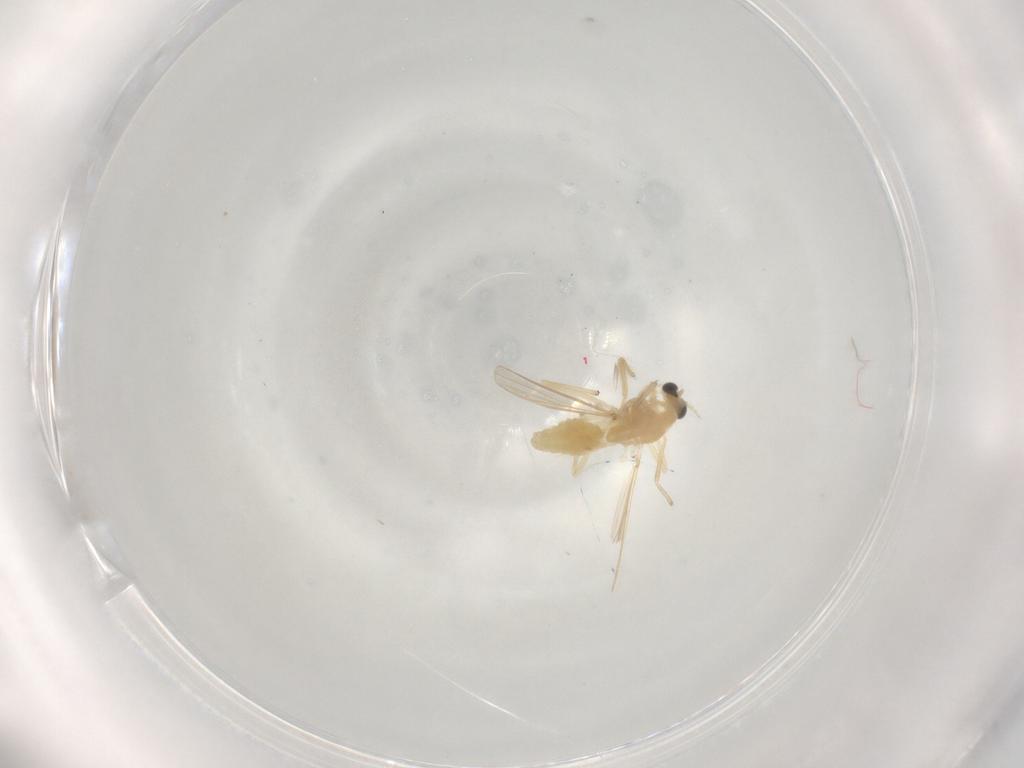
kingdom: Animalia
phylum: Arthropoda
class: Insecta
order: Diptera
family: Chironomidae
